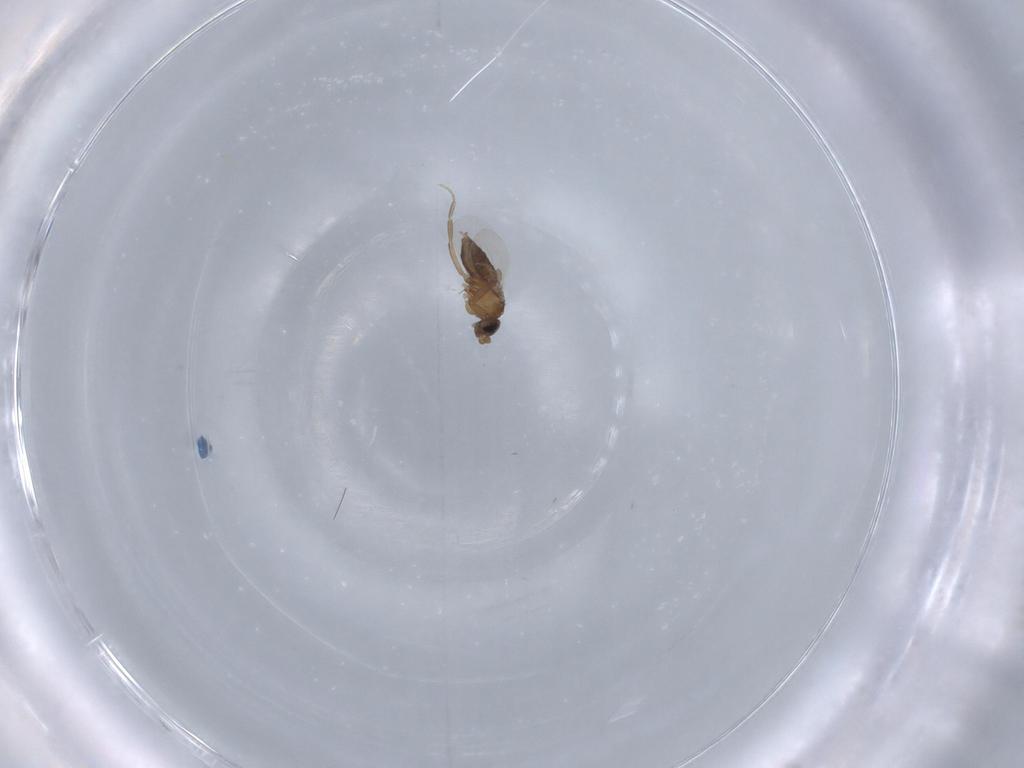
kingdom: Animalia
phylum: Arthropoda
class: Insecta
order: Diptera
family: Phoridae
